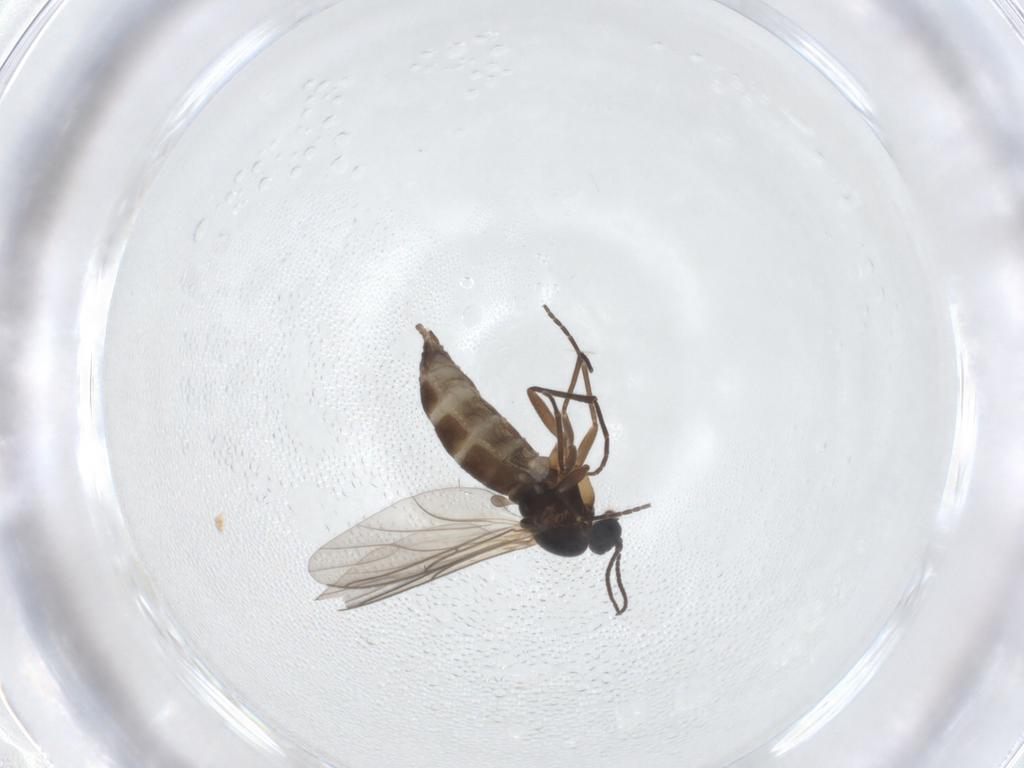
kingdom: Animalia
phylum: Arthropoda
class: Insecta
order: Diptera
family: Sciaridae
